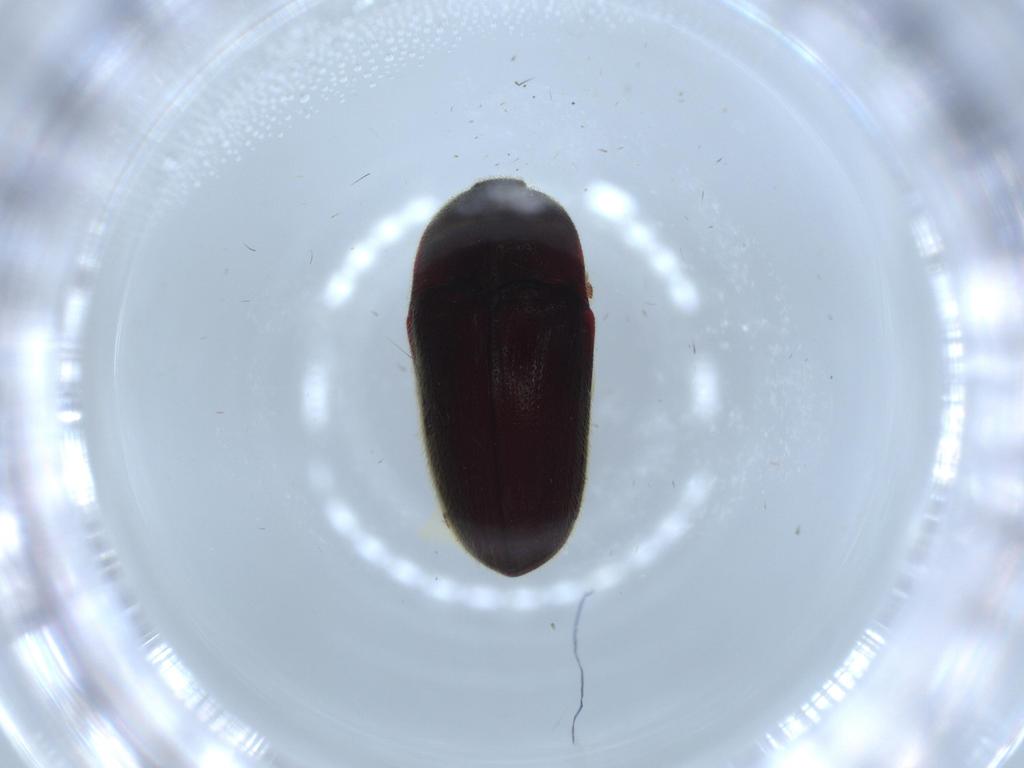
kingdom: Animalia
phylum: Arthropoda
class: Insecta
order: Coleoptera
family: Throscidae
